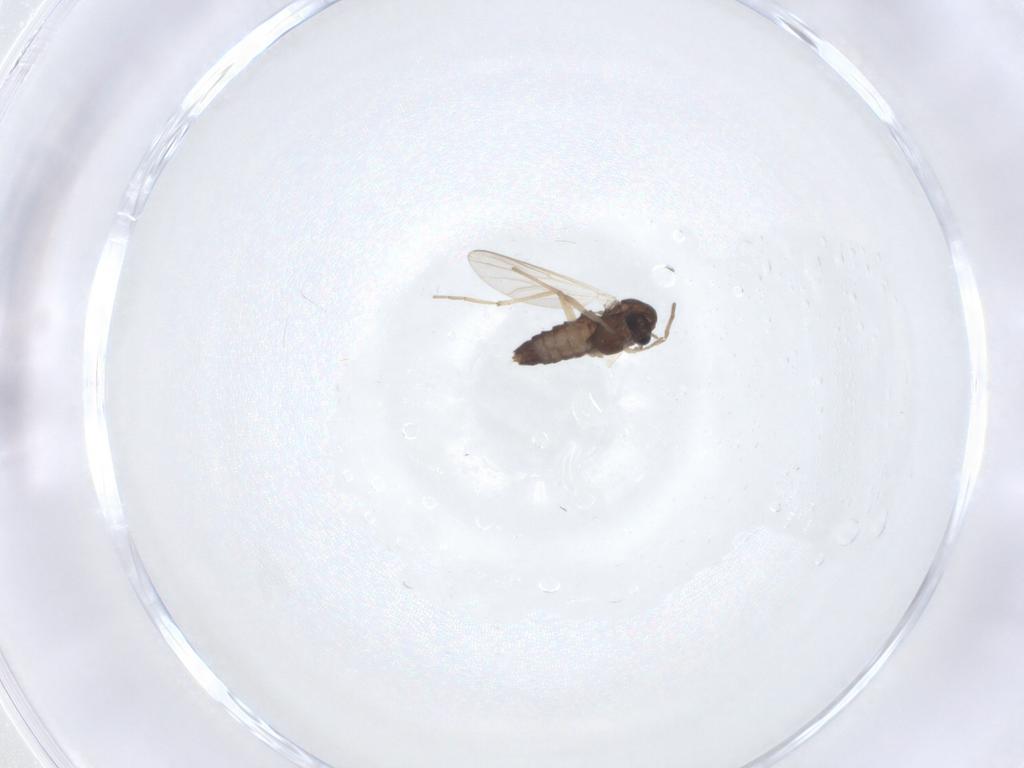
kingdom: Animalia
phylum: Arthropoda
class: Insecta
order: Diptera
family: Chironomidae
